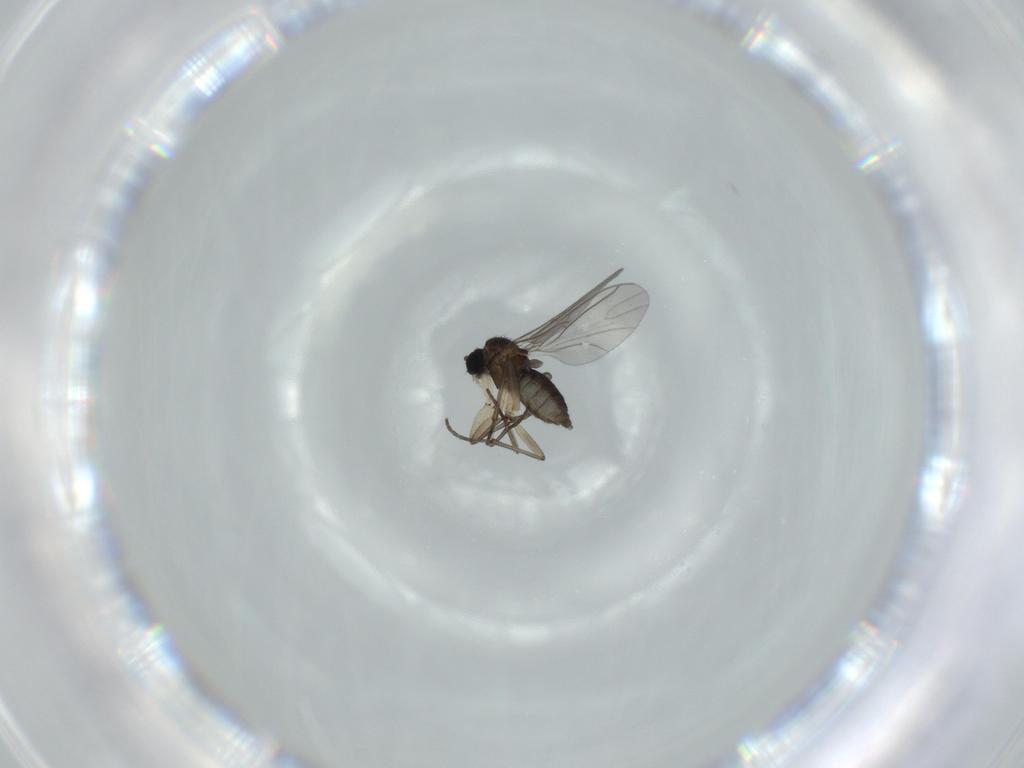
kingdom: Animalia
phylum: Arthropoda
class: Insecta
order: Diptera
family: Sciaridae
